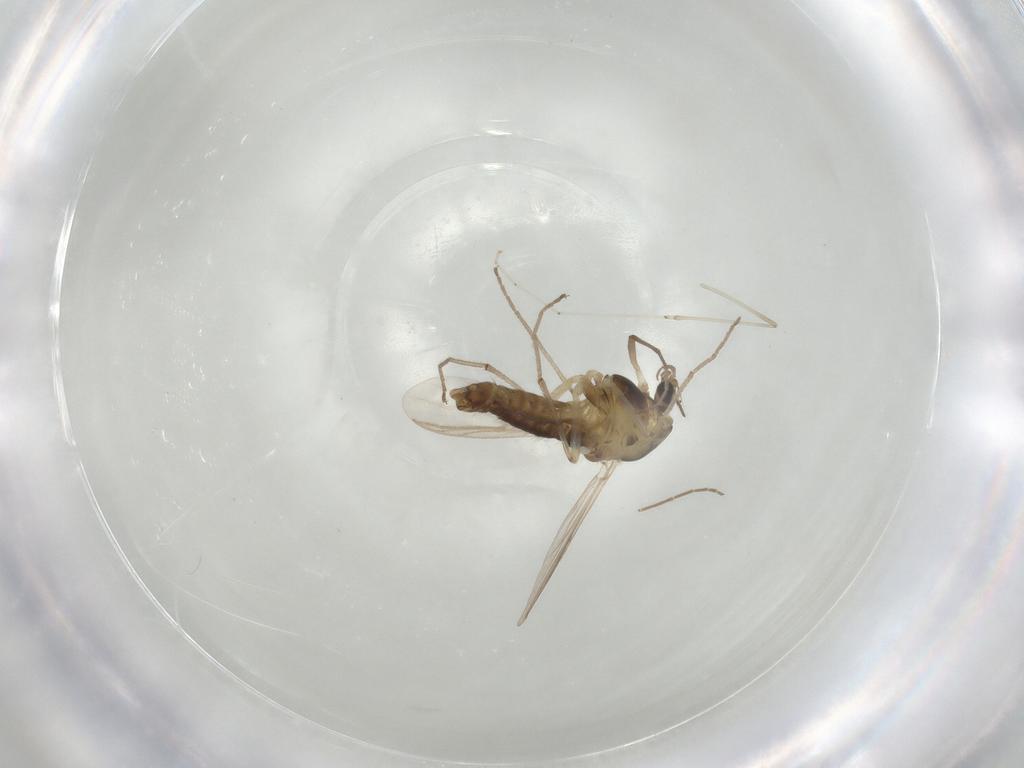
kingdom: Animalia
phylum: Arthropoda
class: Insecta
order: Diptera
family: Chironomidae
